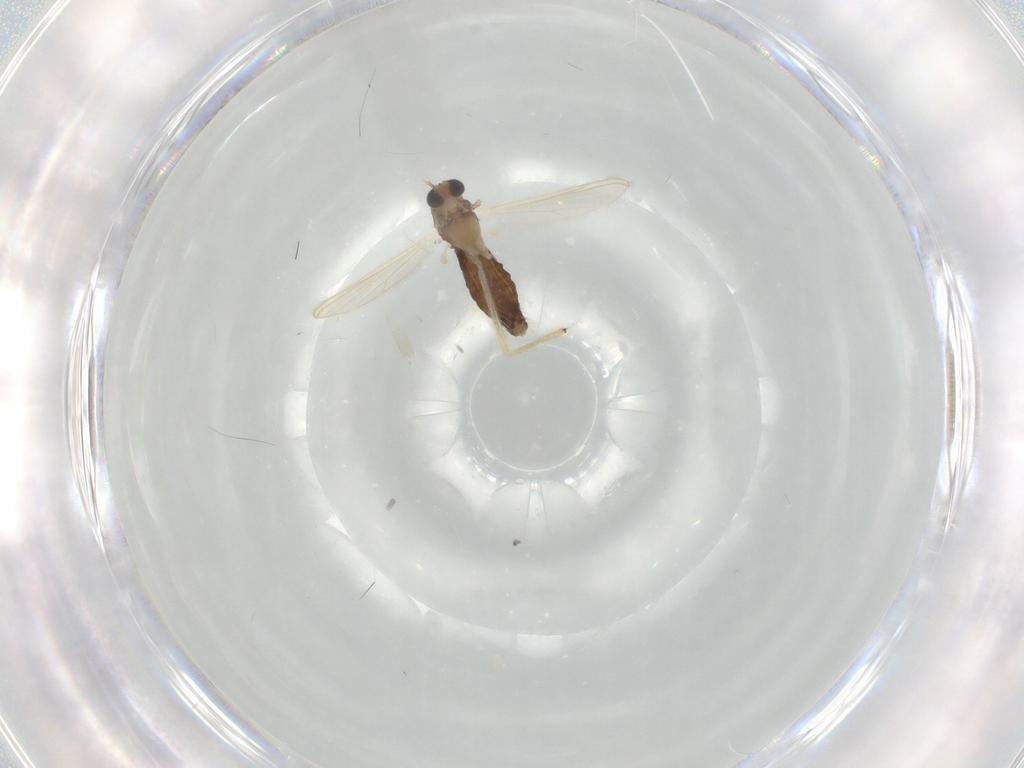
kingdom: Animalia
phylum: Arthropoda
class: Insecta
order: Diptera
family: Chironomidae
